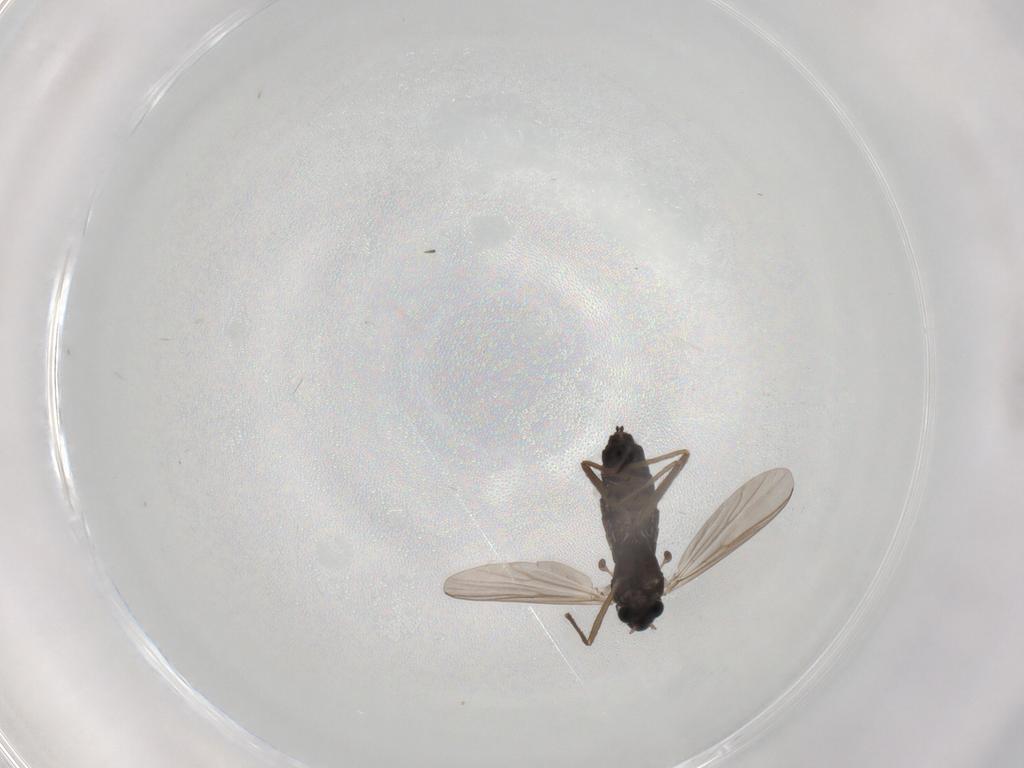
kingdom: Animalia
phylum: Arthropoda
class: Insecta
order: Diptera
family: Chironomidae
